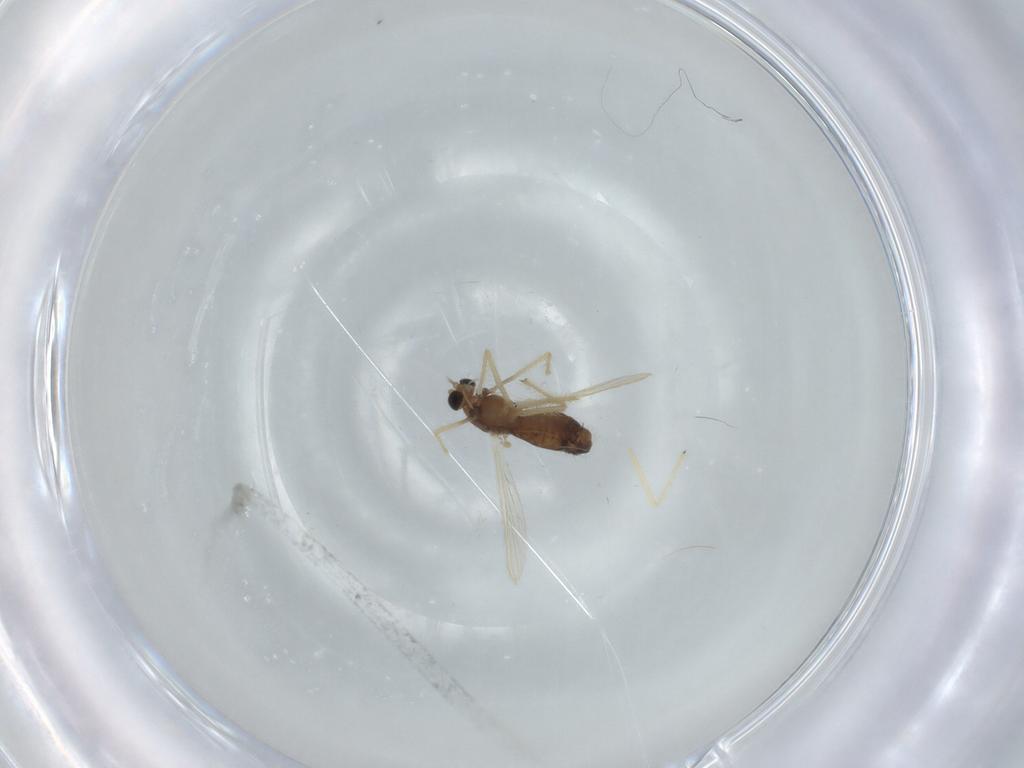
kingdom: Animalia
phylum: Arthropoda
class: Insecta
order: Diptera
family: Chironomidae
